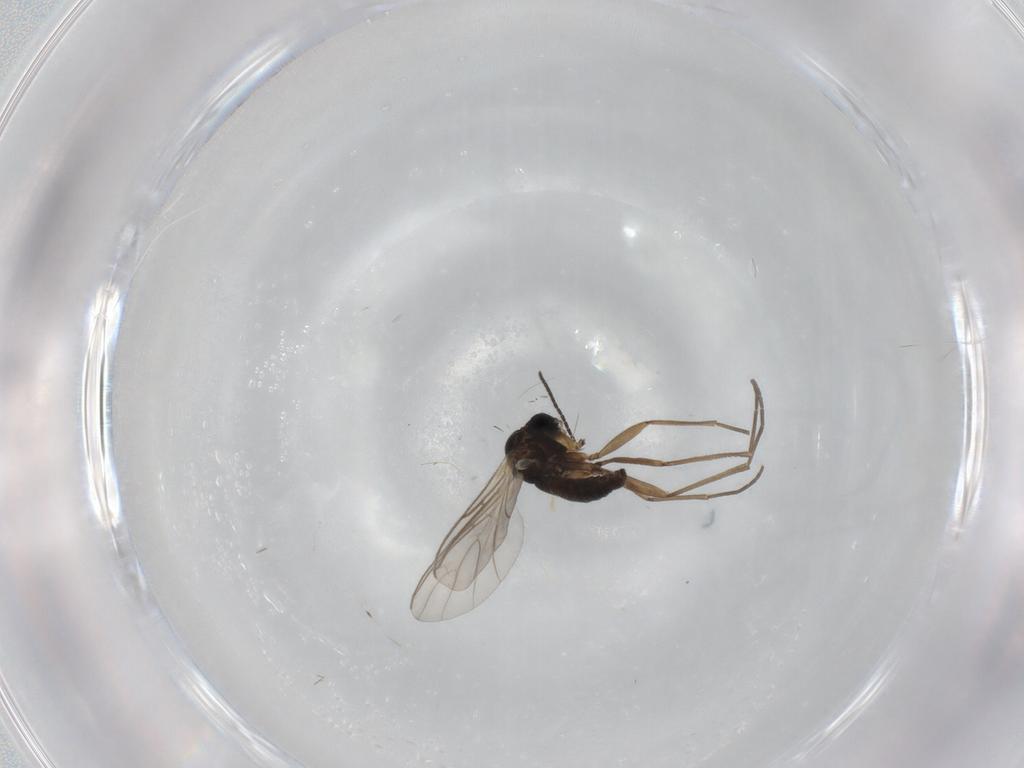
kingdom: Animalia
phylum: Arthropoda
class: Insecta
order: Diptera
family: Sciaridae
